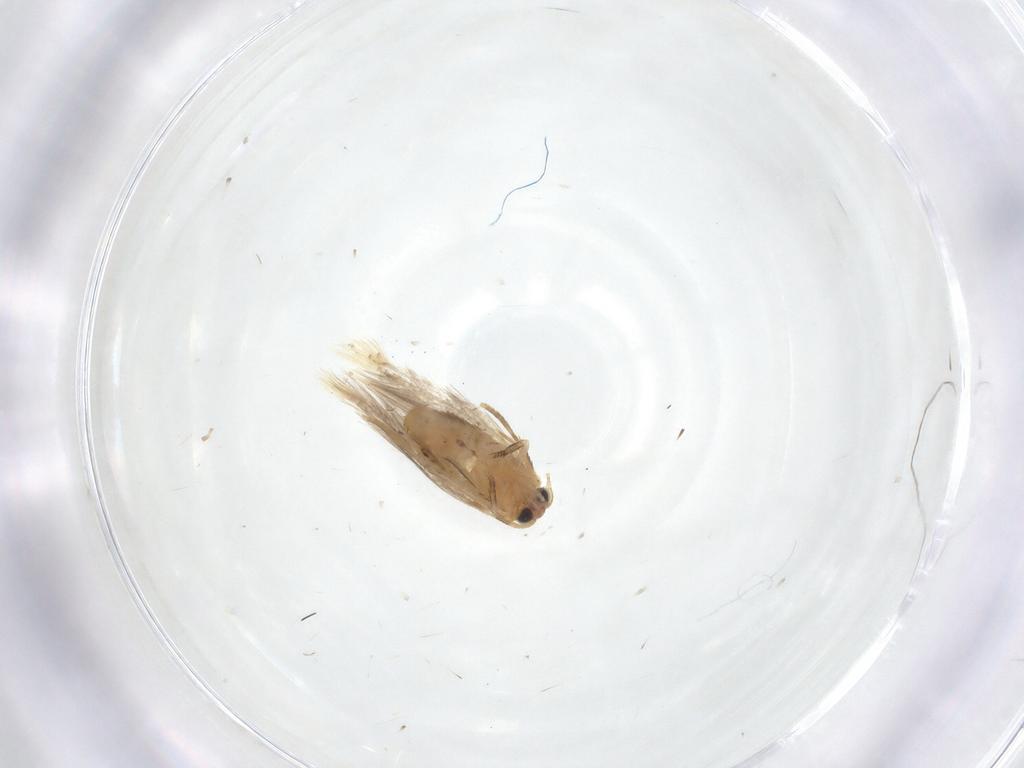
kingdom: Animalia
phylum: Arthropoda
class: Insecta
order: Lepidoptera
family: Nepticulidae
